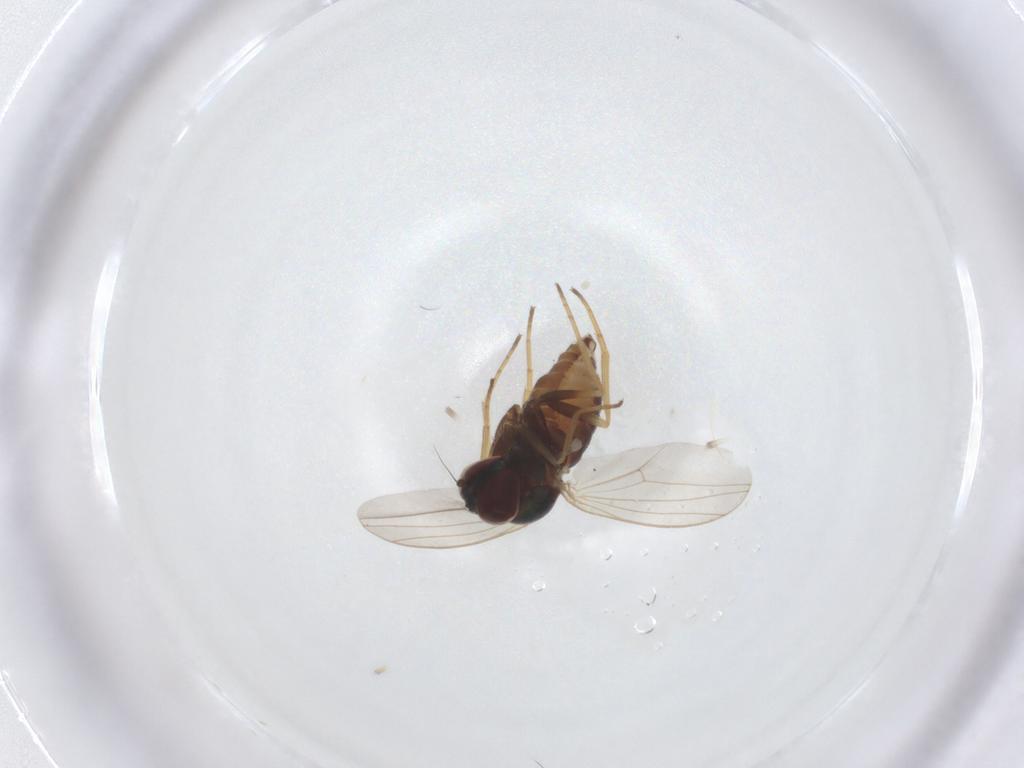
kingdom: Animalia
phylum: Arthropoda
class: Insecta
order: Diptera
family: Dolichopodidae
